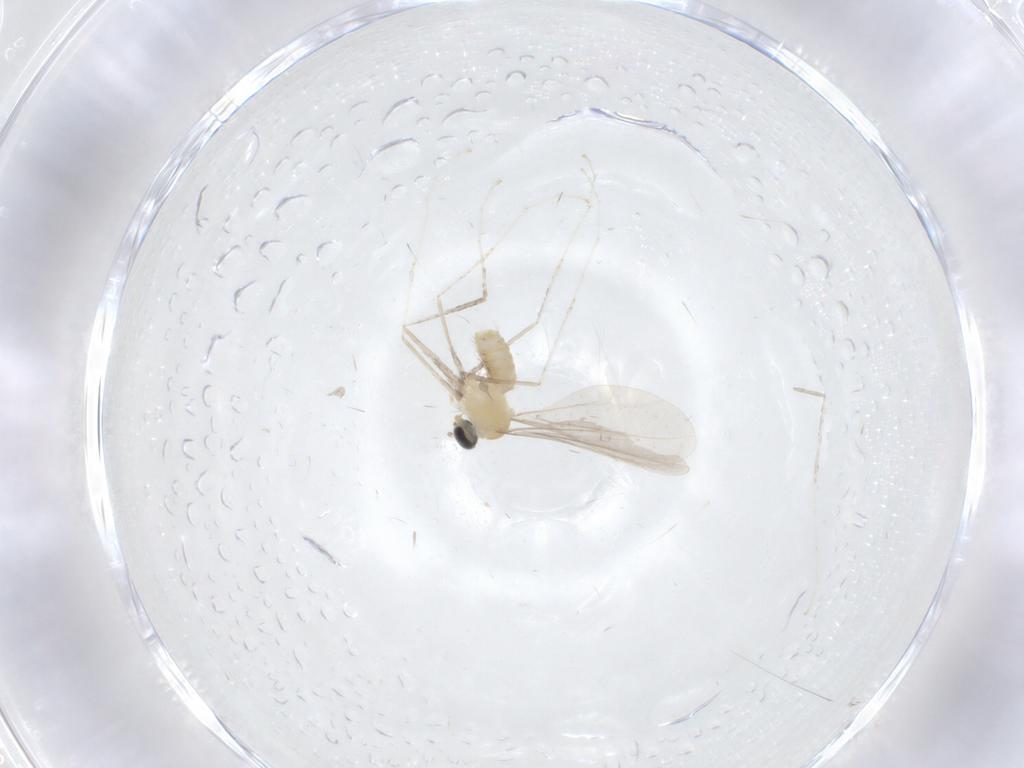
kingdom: Animalia
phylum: Arthropoda
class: Insecta
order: Diptera
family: Cecidomyiidae
